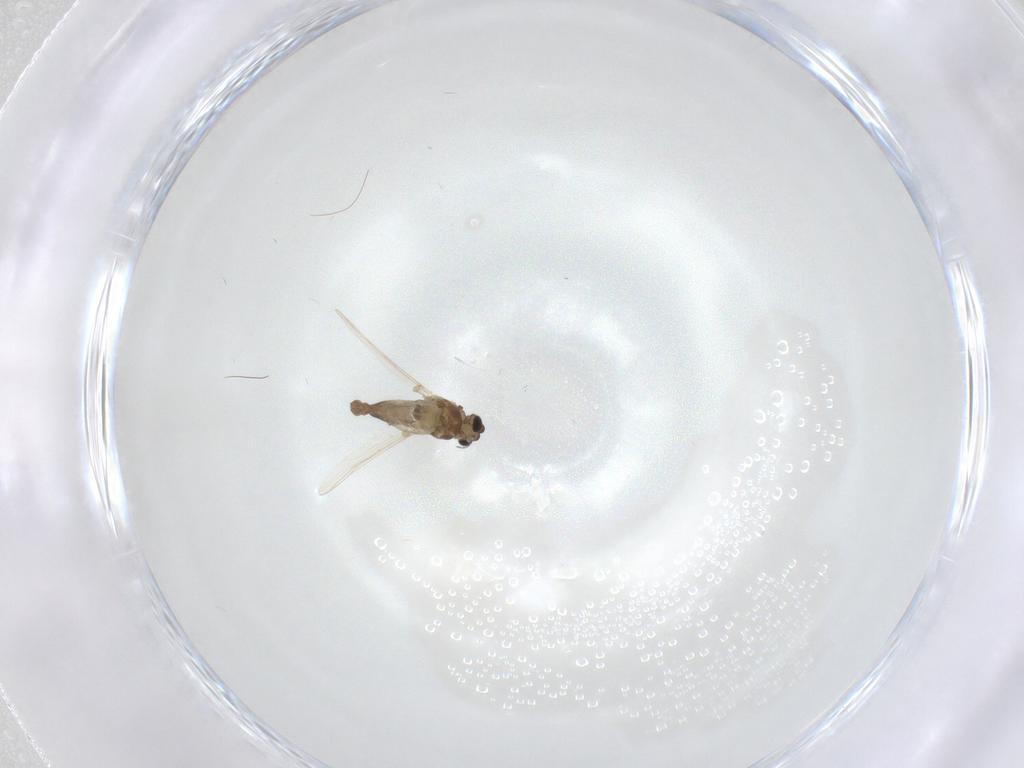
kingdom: Animalia
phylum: Arthropoda
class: Insecta
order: Diptera
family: Chironomidae
